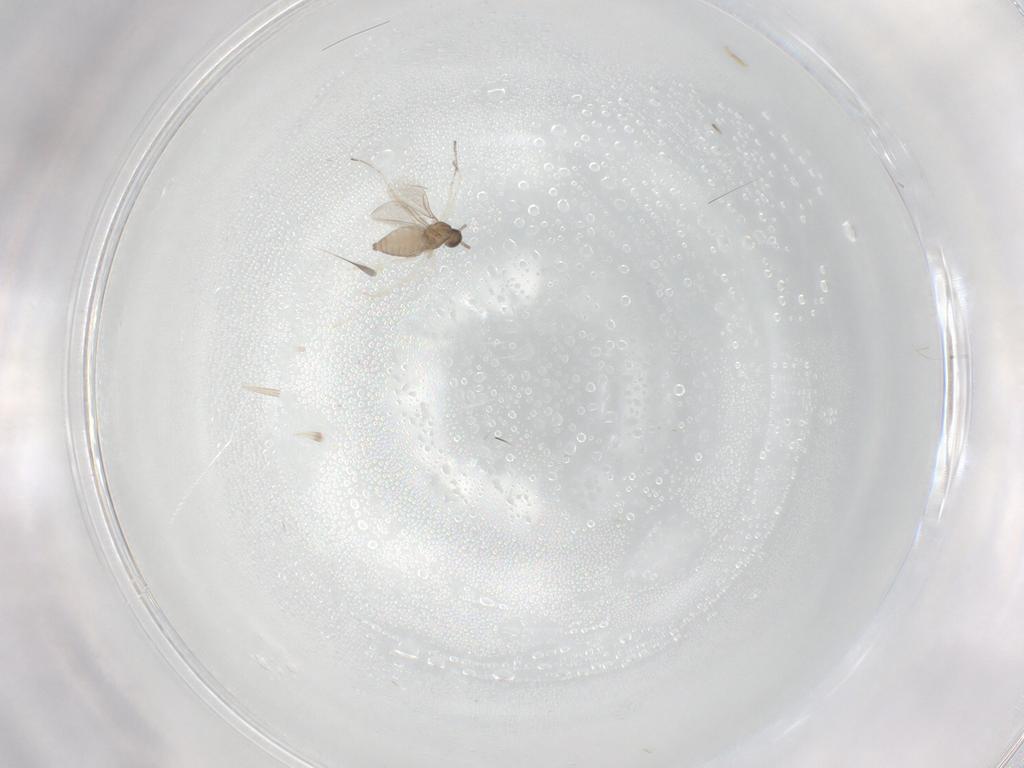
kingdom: Animalia
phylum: Arthropoda
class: Insecta
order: Diptera
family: Cecidomyiidae
